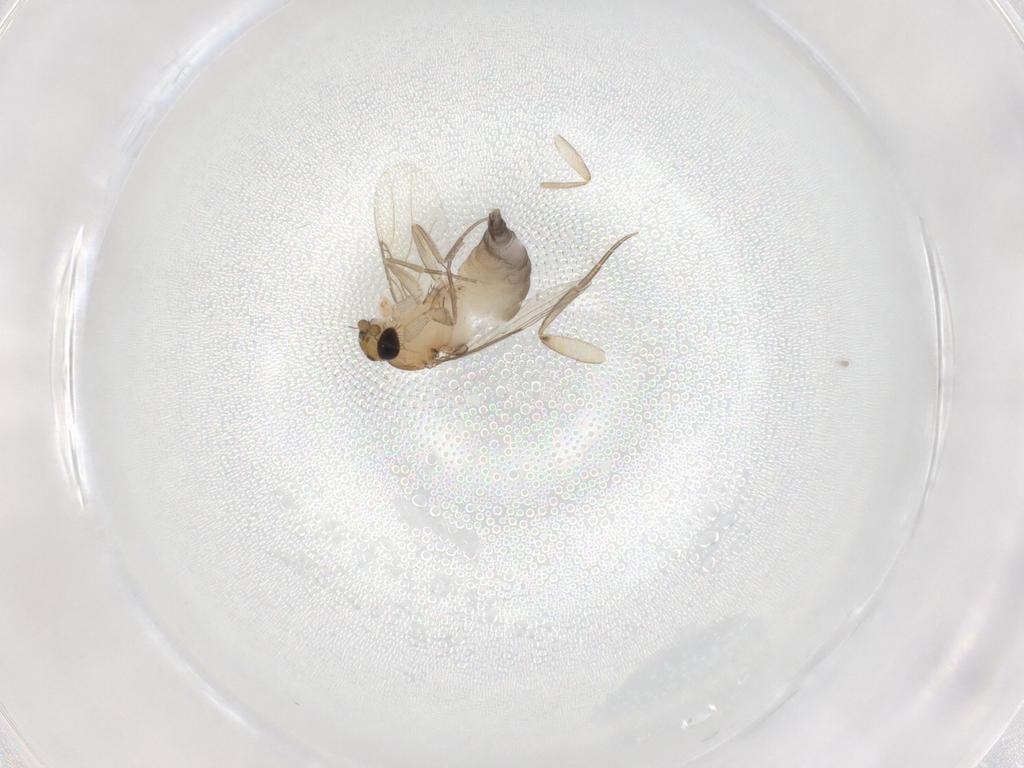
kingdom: Animalia
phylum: Arthropoda
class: Insecta
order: Diptera
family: Phoridae
